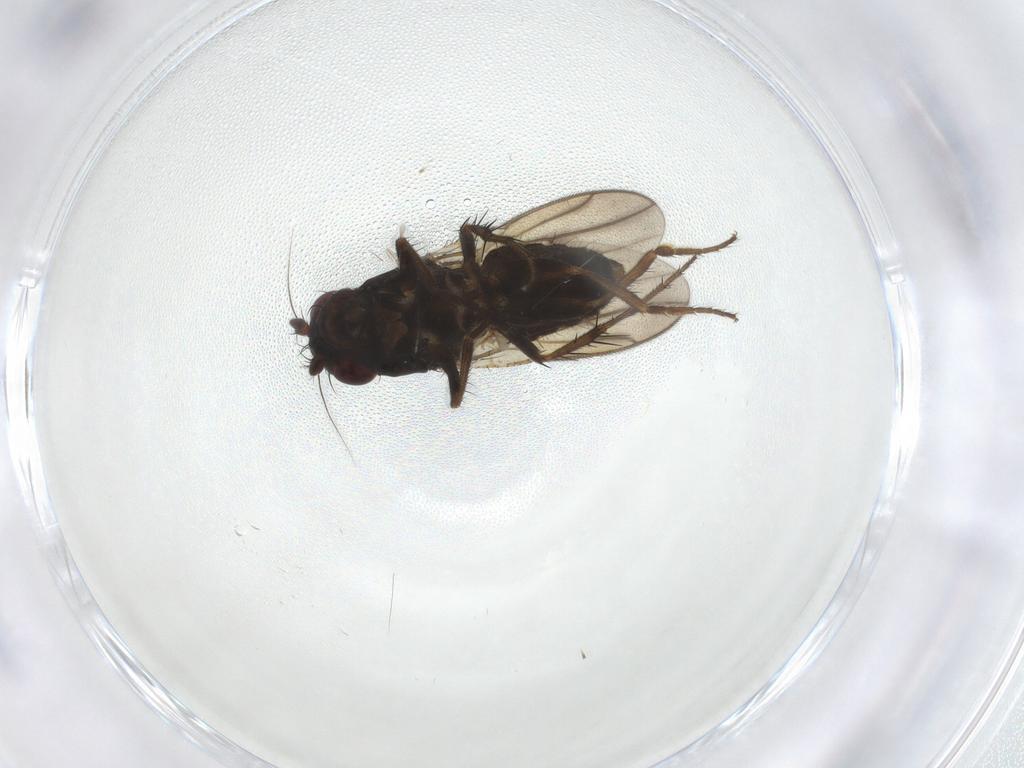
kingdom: Animalia
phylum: Arthropoda
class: Insecta
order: Diptera
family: Sphaeroceridae
